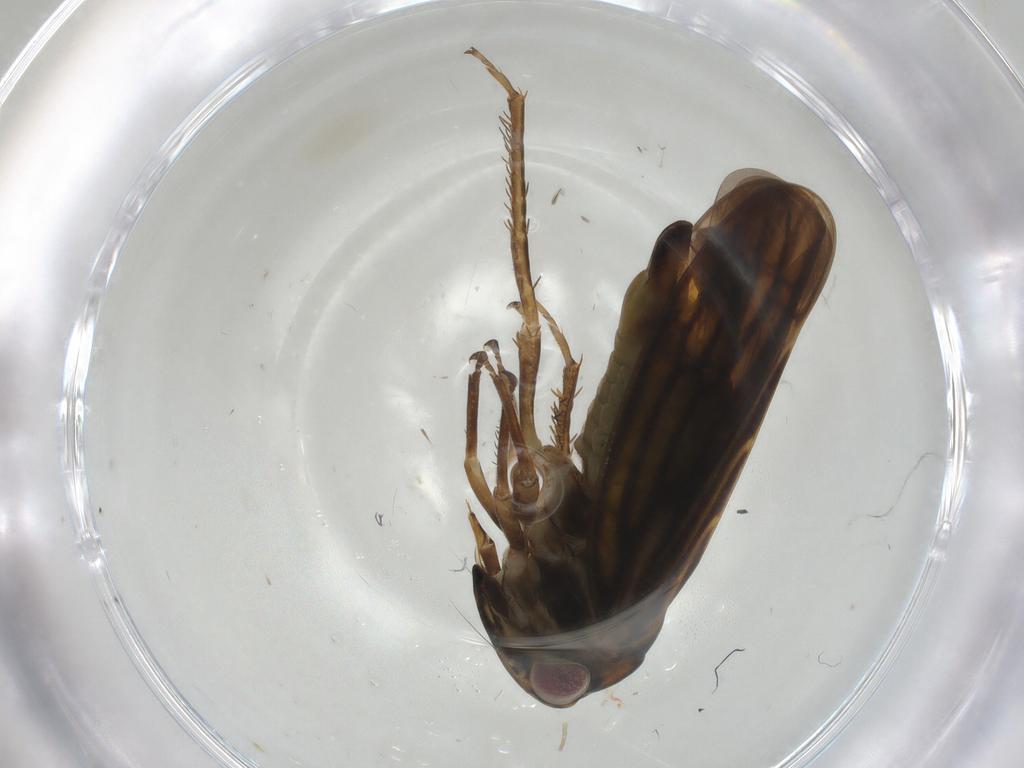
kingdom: Animalia
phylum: Arthropoda
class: Insecta
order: Hemiptera
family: Cicadellidae
